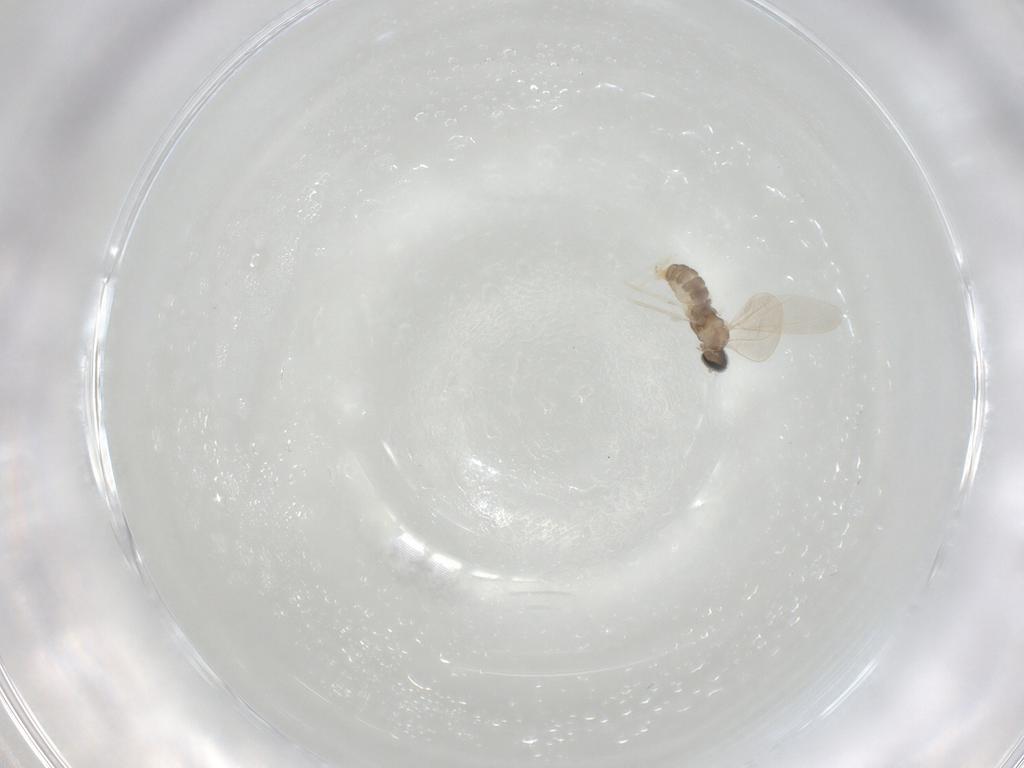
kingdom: Animalia
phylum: Arthropoda
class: Insecta
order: Diptera
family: Cecidomyiidae
